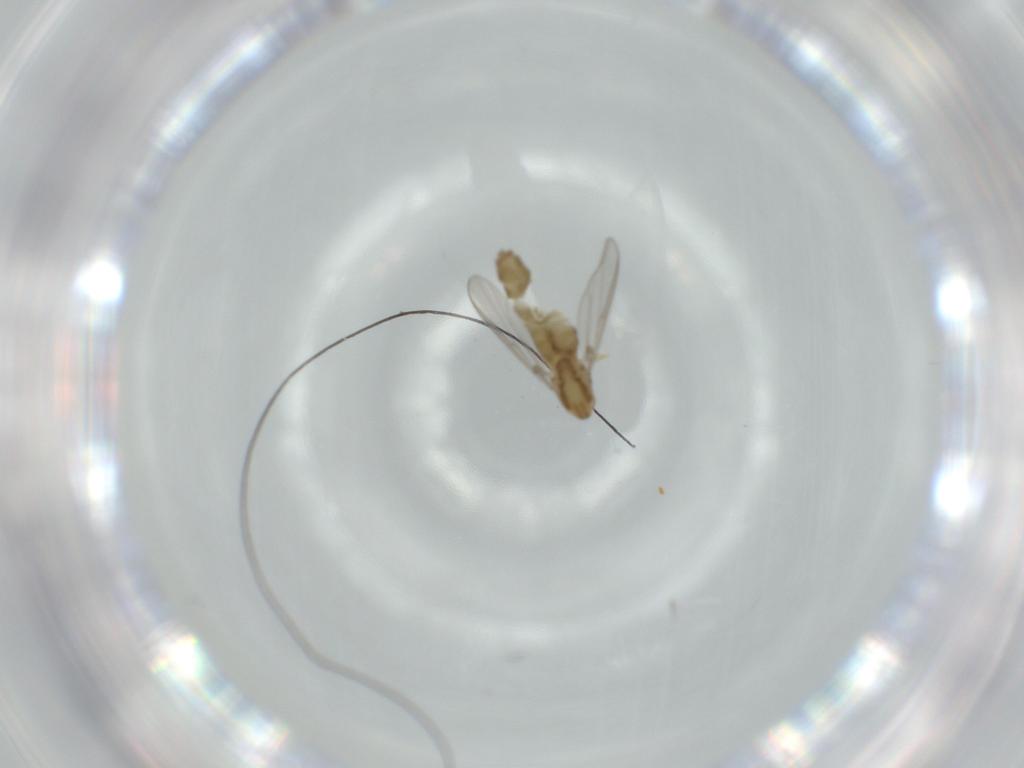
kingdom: Animalia
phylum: Arthropoda
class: Insecta
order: Diptera
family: Chironomidae
